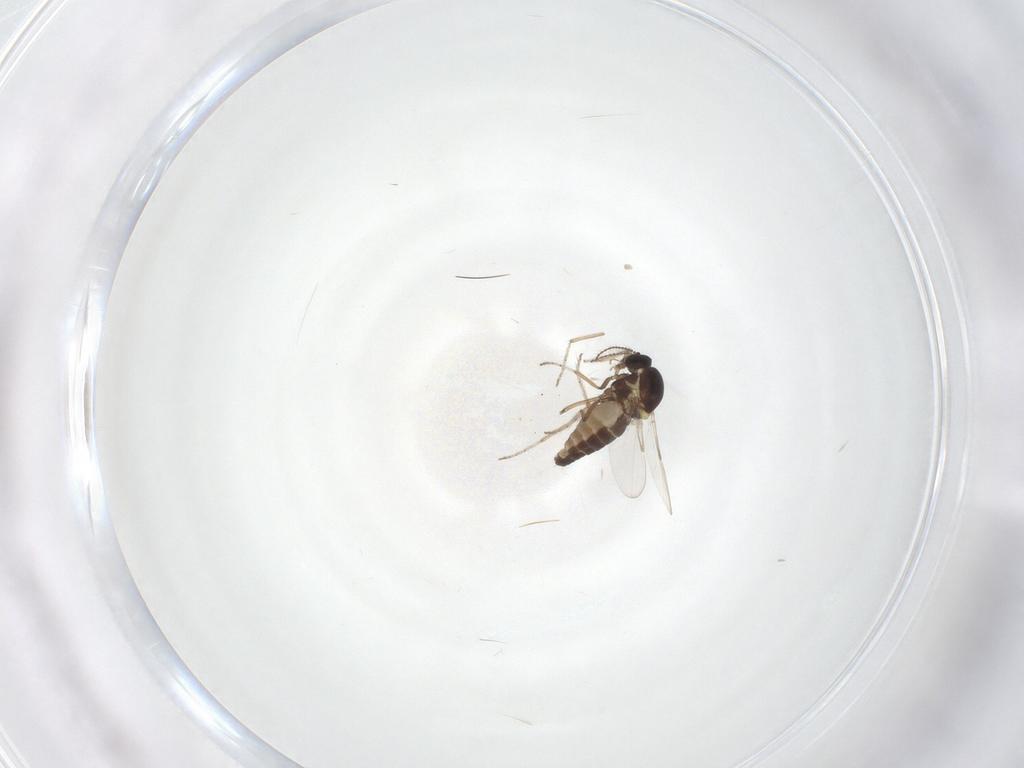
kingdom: Animalia
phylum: Arthropoda
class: Insecta
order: Diptera
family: Ceratopogonidae
